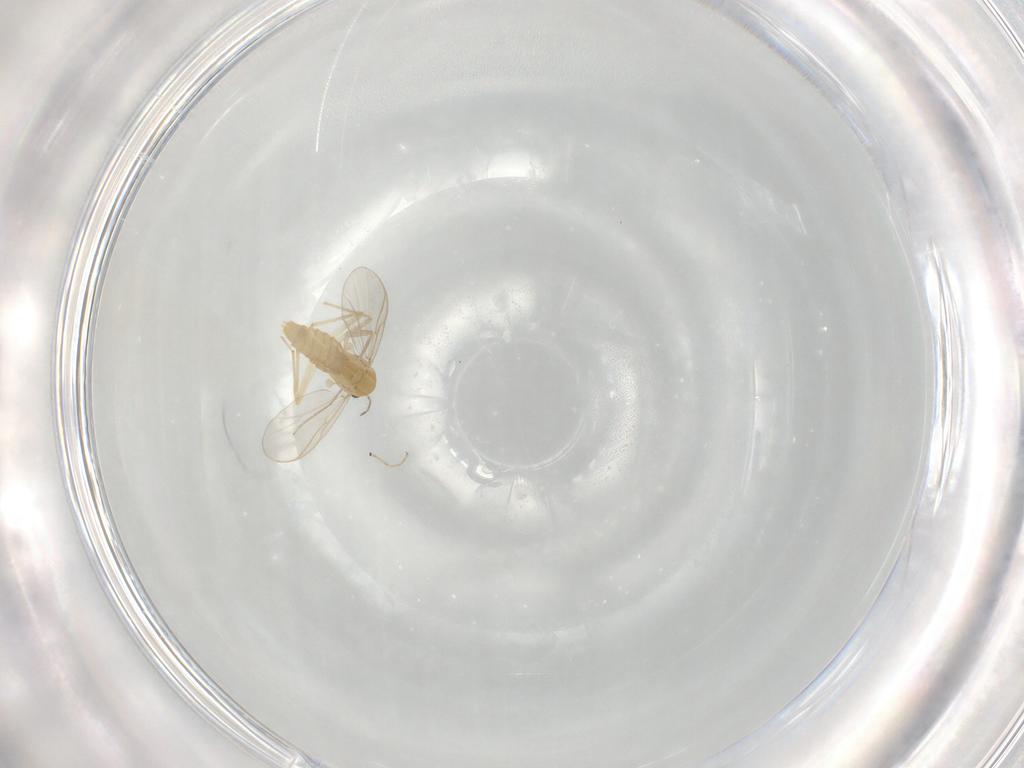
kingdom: Animalia
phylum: Arthropoda
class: Insecta
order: Diptera
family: Chironomidae
